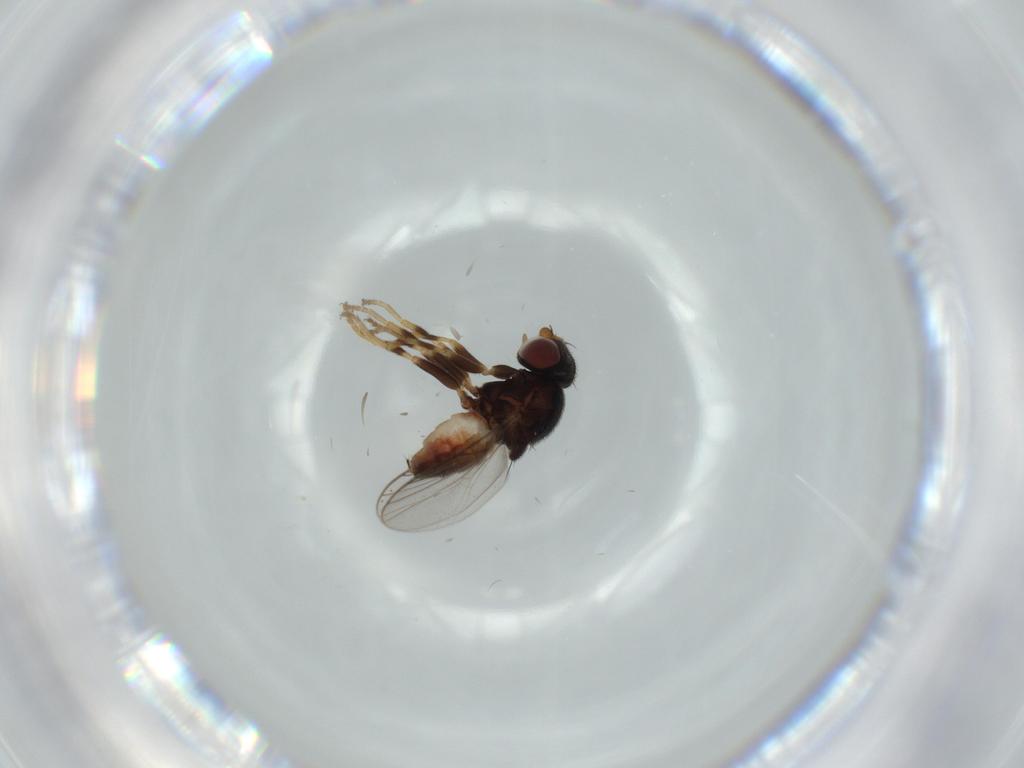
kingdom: Animalia
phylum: Arthropoda
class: Insecta
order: Diptera
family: Chloropidae
